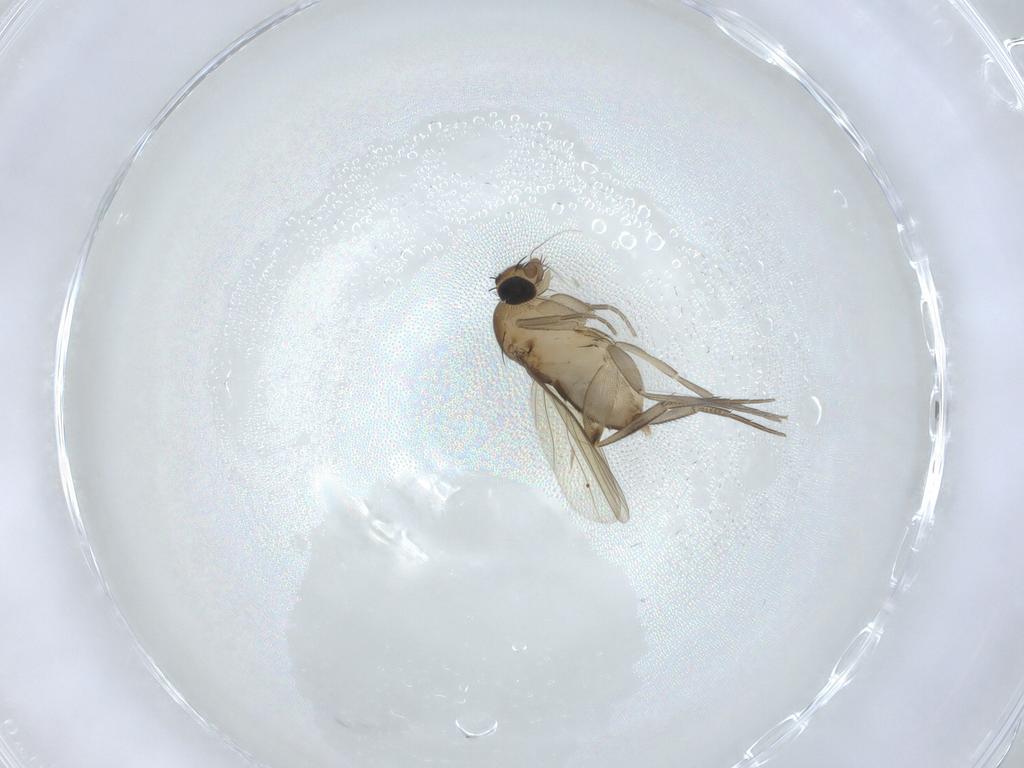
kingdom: Animalia
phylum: Arthropoda
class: Insecta
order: Diptera
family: Phoridae
